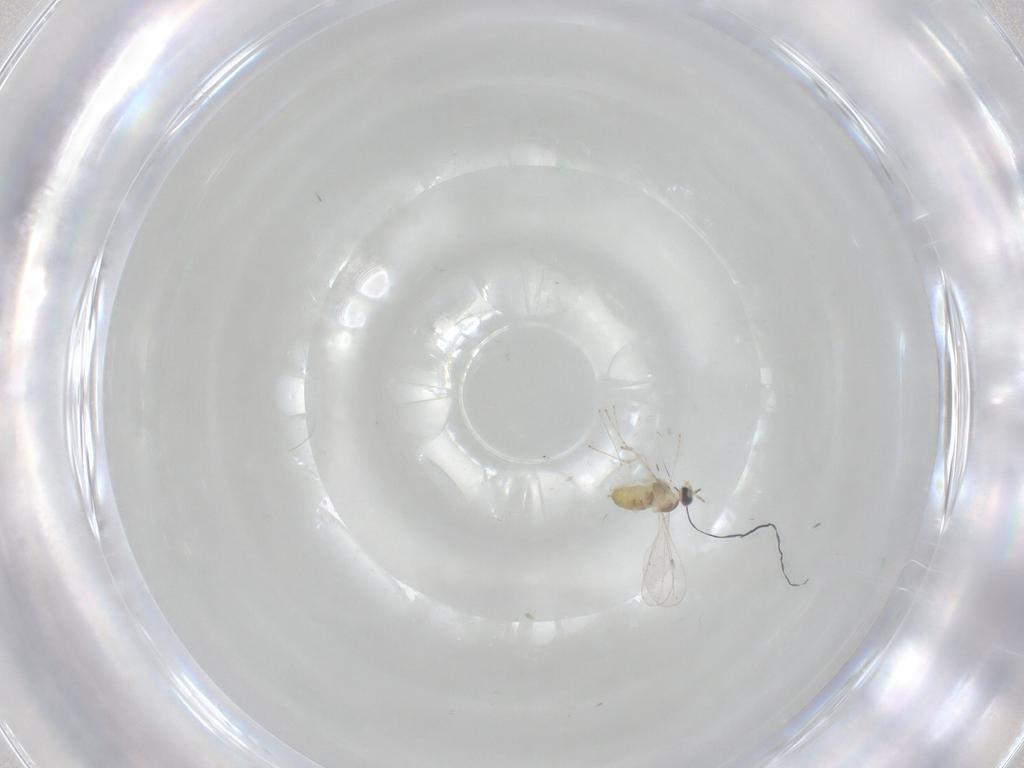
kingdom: Animalia
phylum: Arthropoda
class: Insecta
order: Diptera
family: Cecidomyiidae
